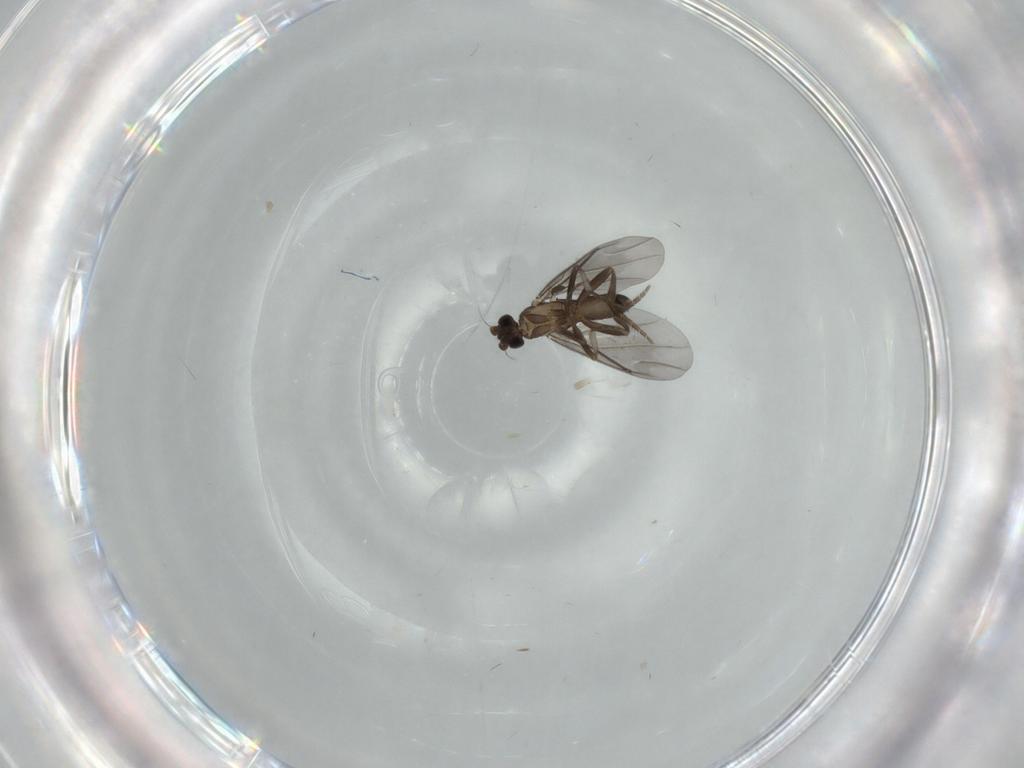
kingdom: Animalia
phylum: Arthropoda
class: Insecta
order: Diptera
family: Phoridae
